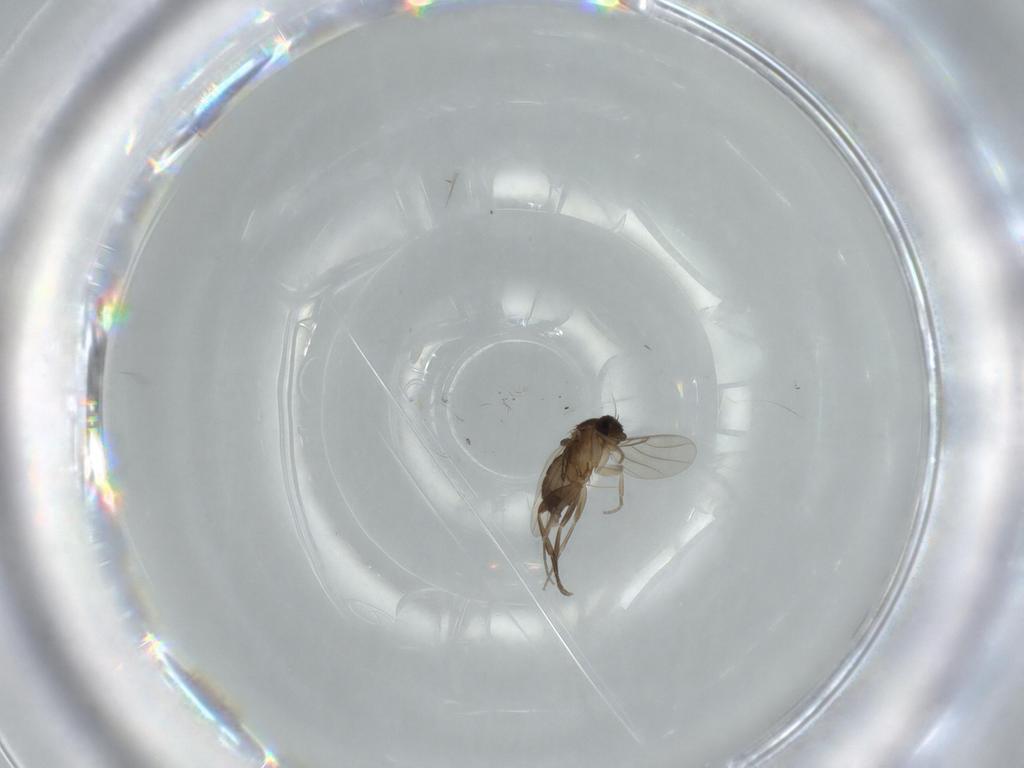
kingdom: Animalia
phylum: Arthropoda
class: Insecta
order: Diptera
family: Phoridae
